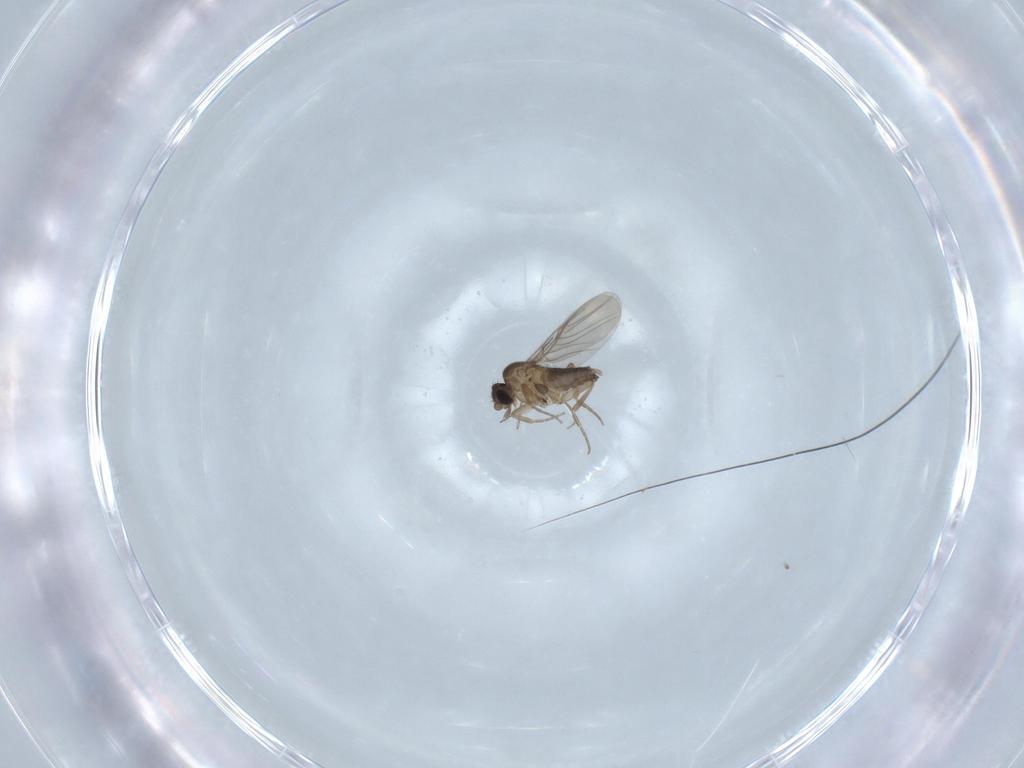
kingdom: Animalia
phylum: Arthropoda
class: Insecta
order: Diptera
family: Phoridae
